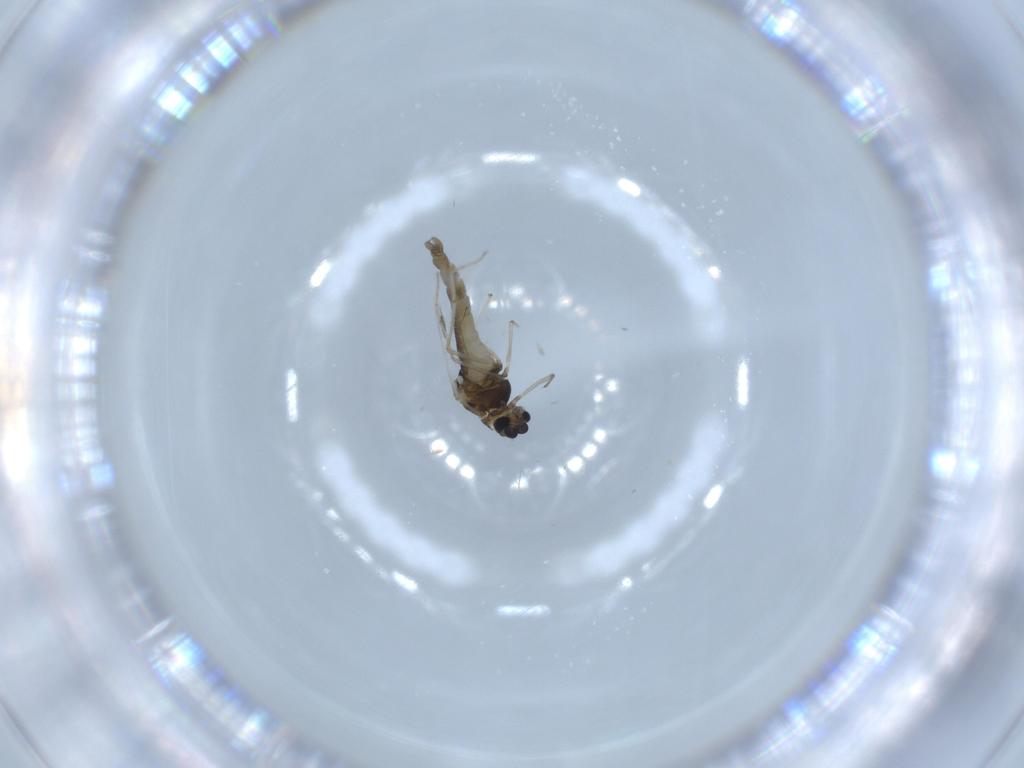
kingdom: Animalia
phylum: Arthropoda
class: Insecta
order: Diptera
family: Chironomidae
